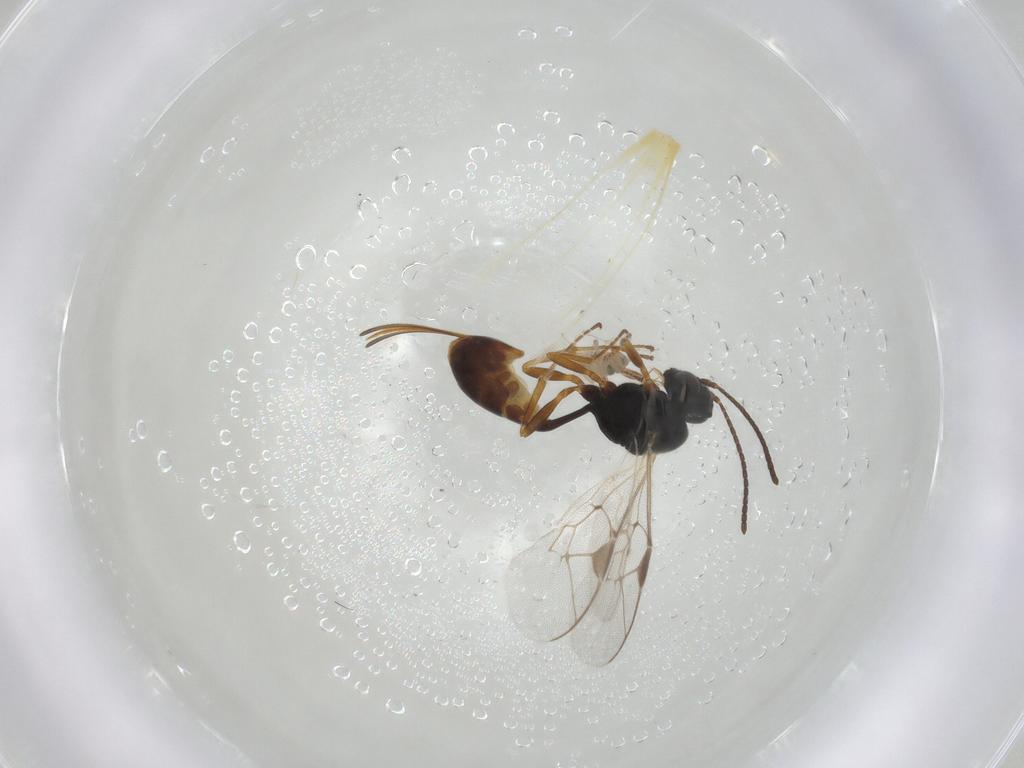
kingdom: Animalia
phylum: Arthropoda
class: Insecta
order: Hymenoptera
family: Ichneumonidae
